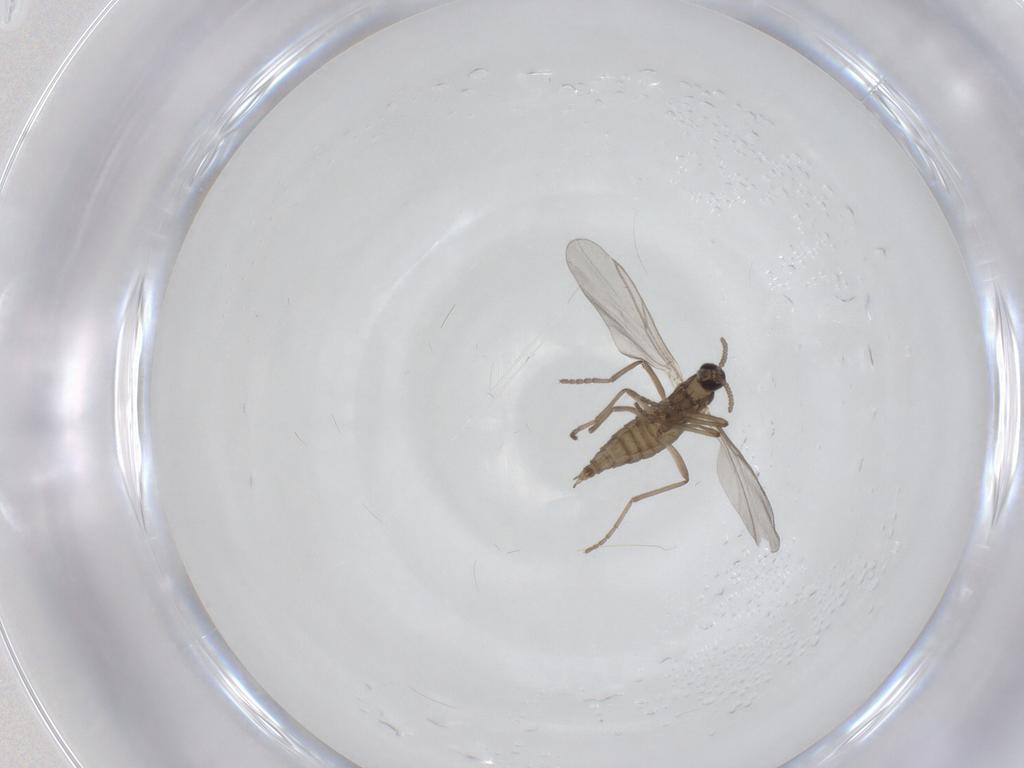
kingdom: Animalia
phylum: Arthropoda
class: Insecta
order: Diptera
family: Cecidomyiidae
